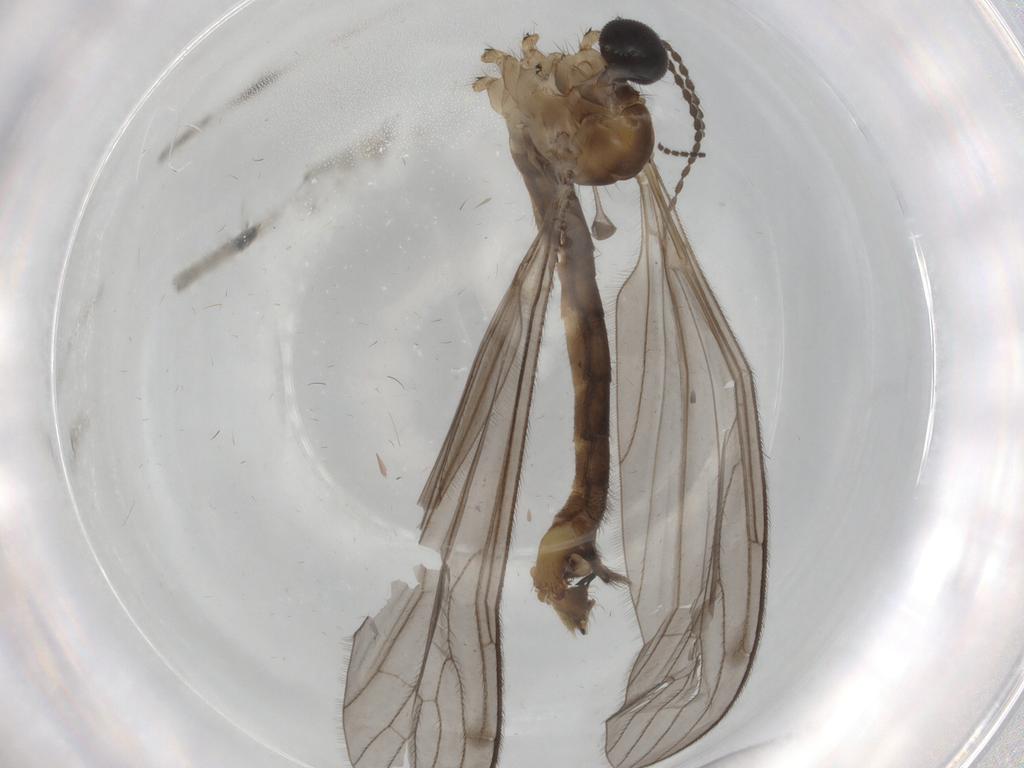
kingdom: Animalia
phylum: Arthropoda
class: Insecta
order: Diptera
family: Limoniidae
